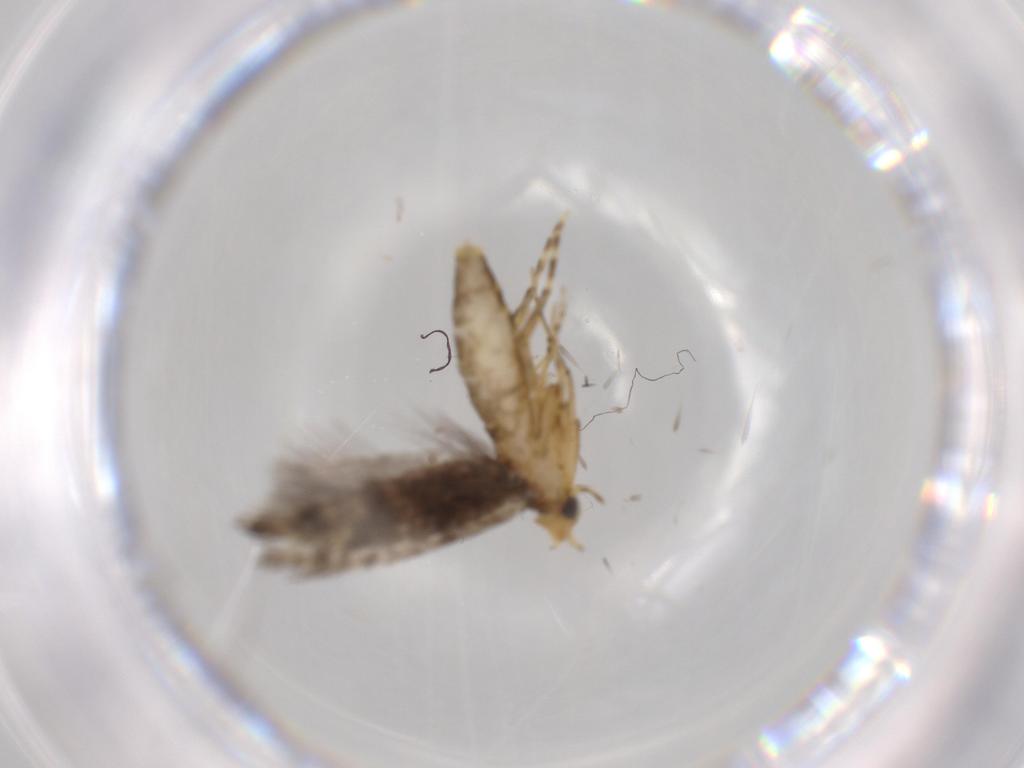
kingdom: Animalia
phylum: Arthropoda
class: Insecta
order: Lepidoptera
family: Argyresthiidae
